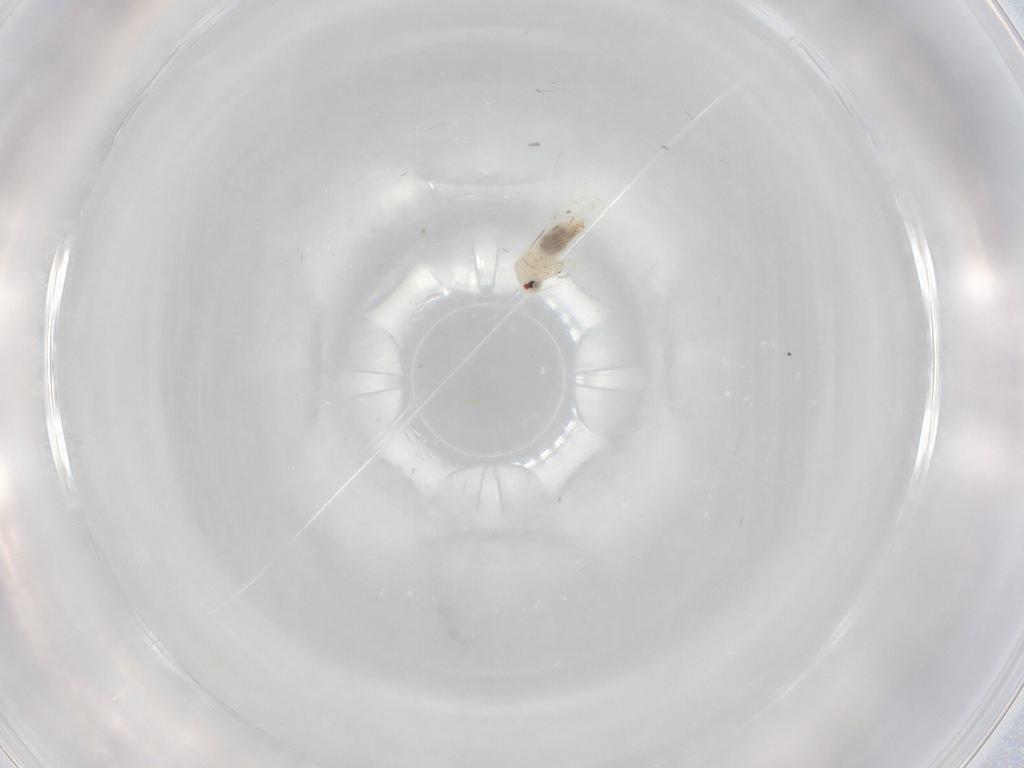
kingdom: Animalia
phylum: Arthropoda
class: Insecta
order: Hemiptera
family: Aleyrodidae
